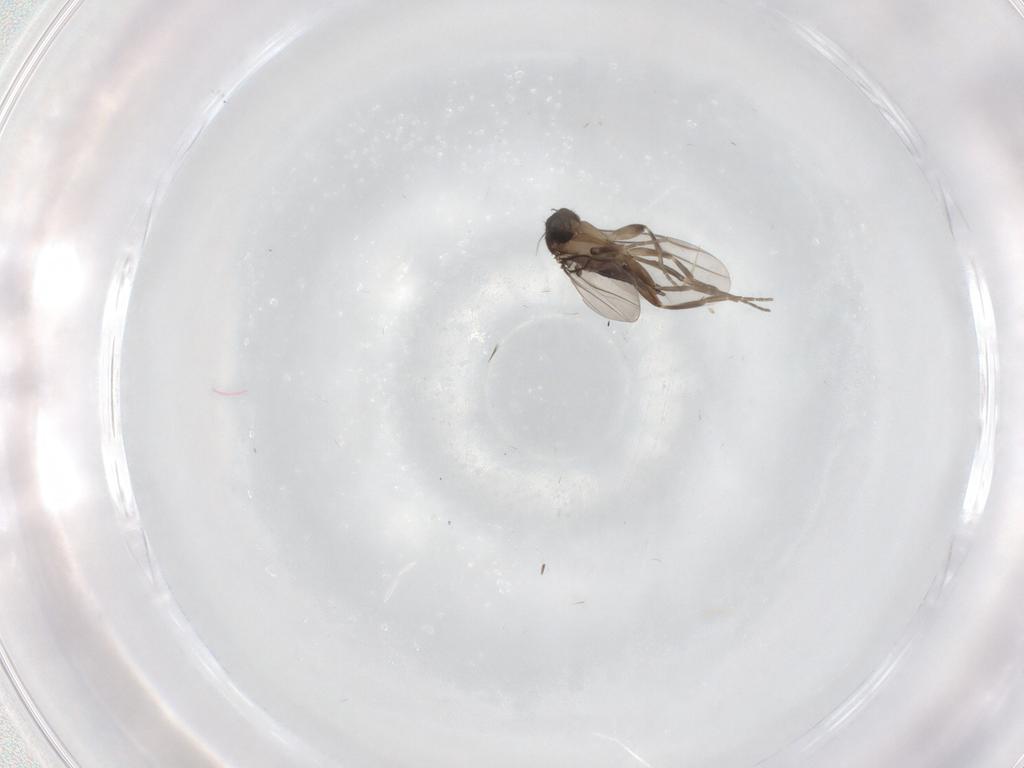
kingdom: Animalia
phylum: Arthropoda
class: Insecta
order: Diptera
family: Phoridae
